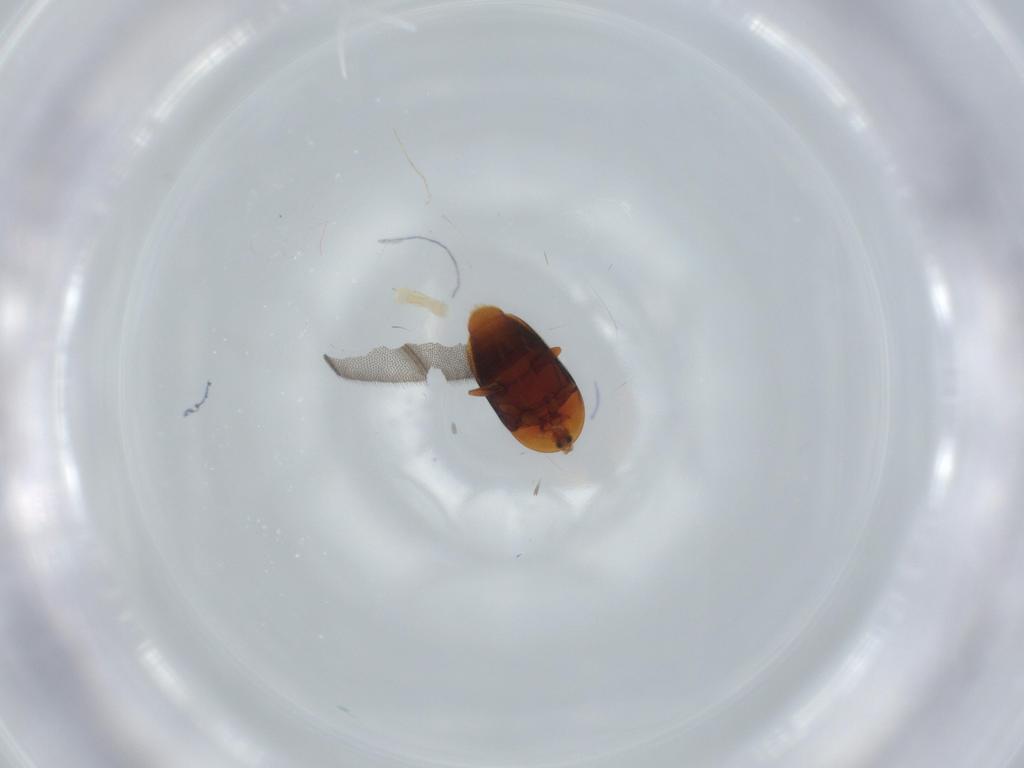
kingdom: Animalia
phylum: Arthropoda
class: Insecta
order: Coleoptera
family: Corylophidae
